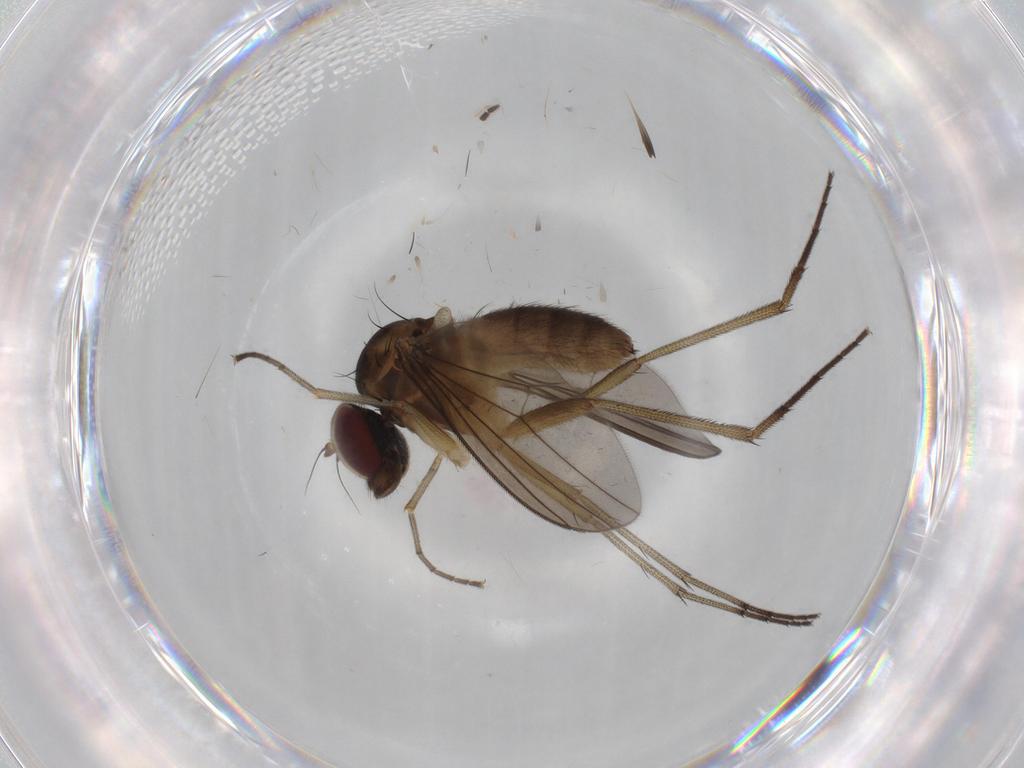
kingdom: Animalia
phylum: Arthropoda
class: Insecta
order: Diptera
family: Dolichopodidae
